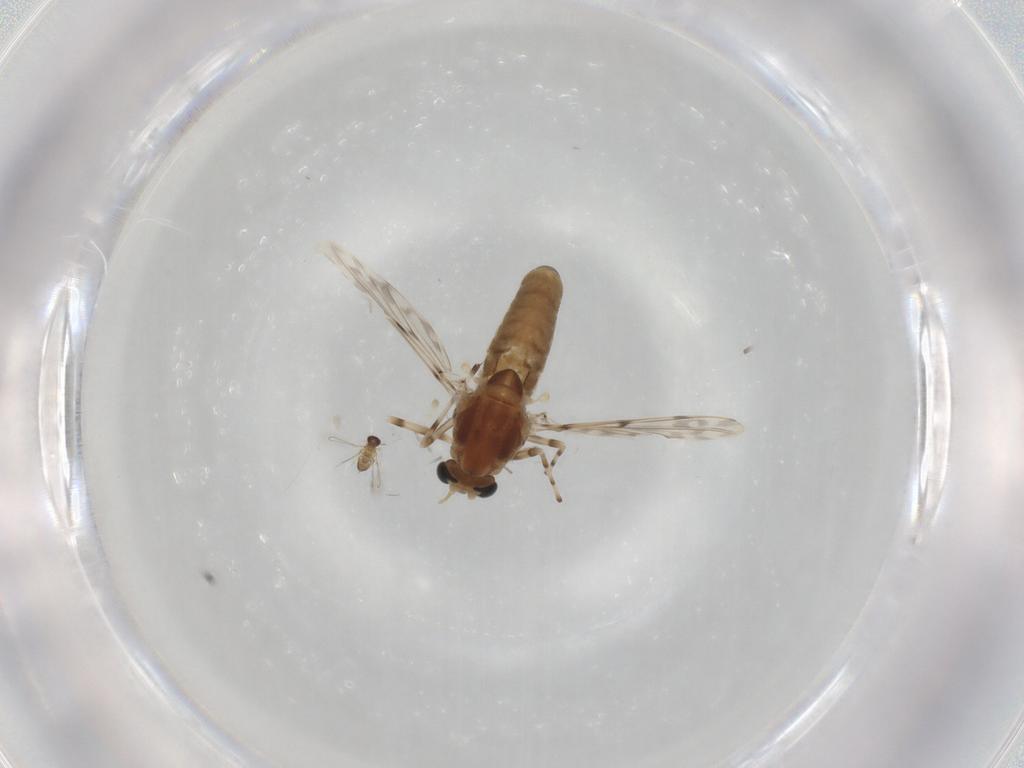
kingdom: Animalia
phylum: Arthropoda
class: Insecta
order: Diptera
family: Chironomidae
